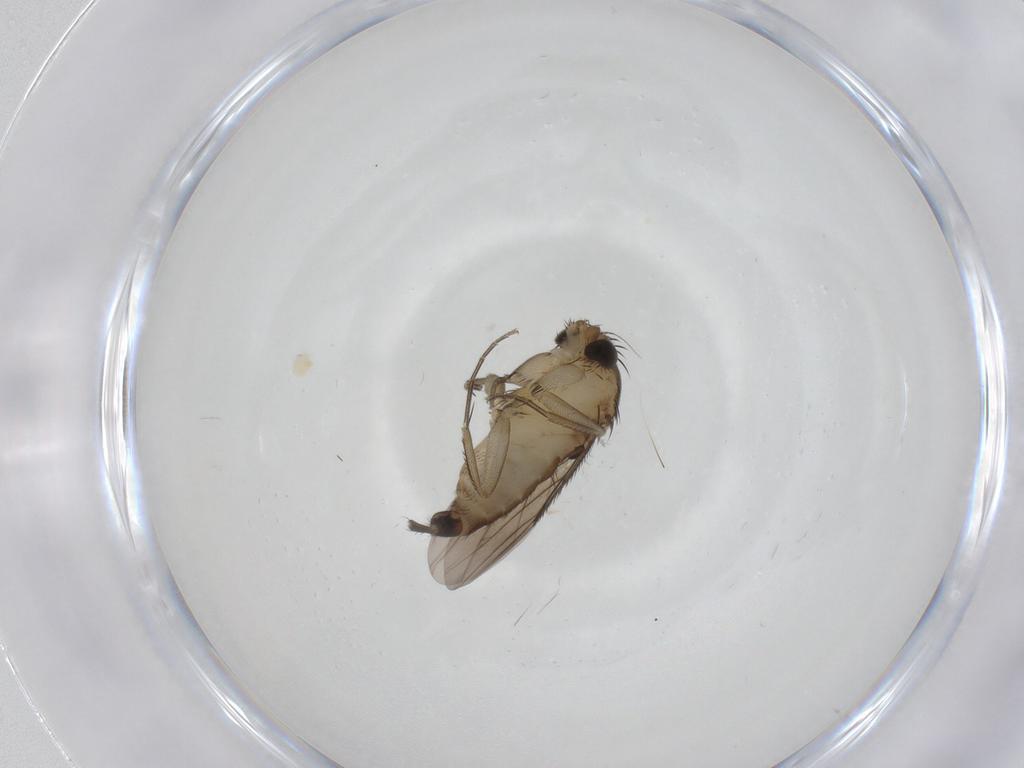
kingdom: Animalia
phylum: Arthropoda
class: Insecta
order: Diptera
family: Phoridae
